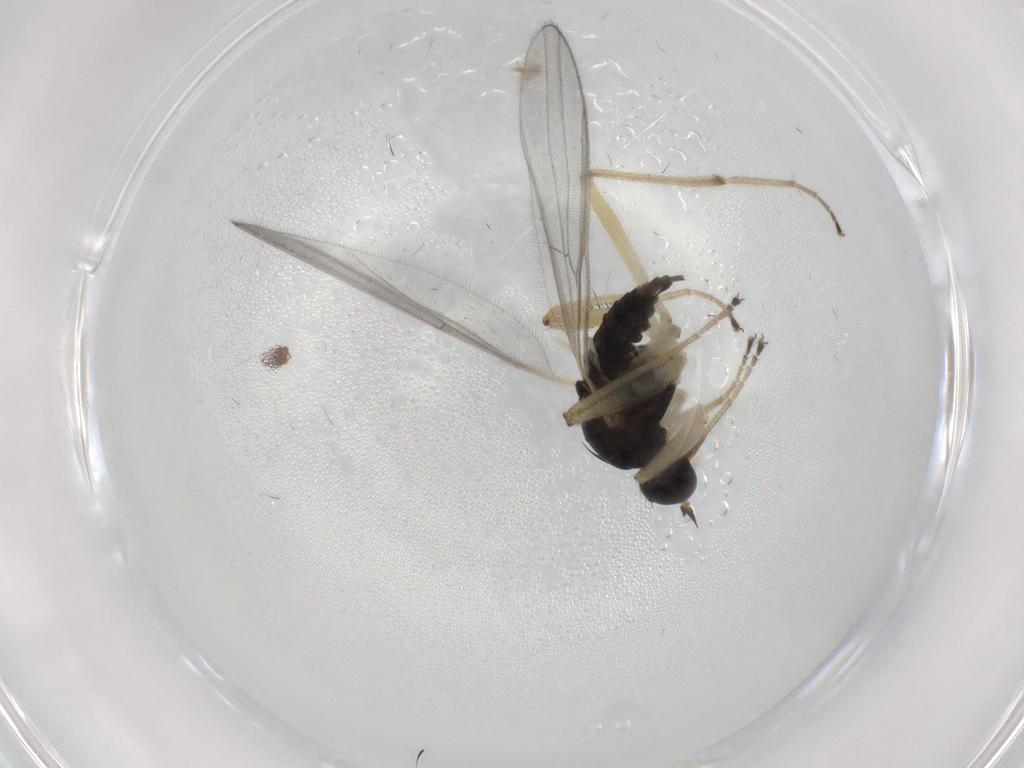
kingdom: Animalia
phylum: Arthropoda
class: Insecta
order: Diptera
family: Hybotidae
